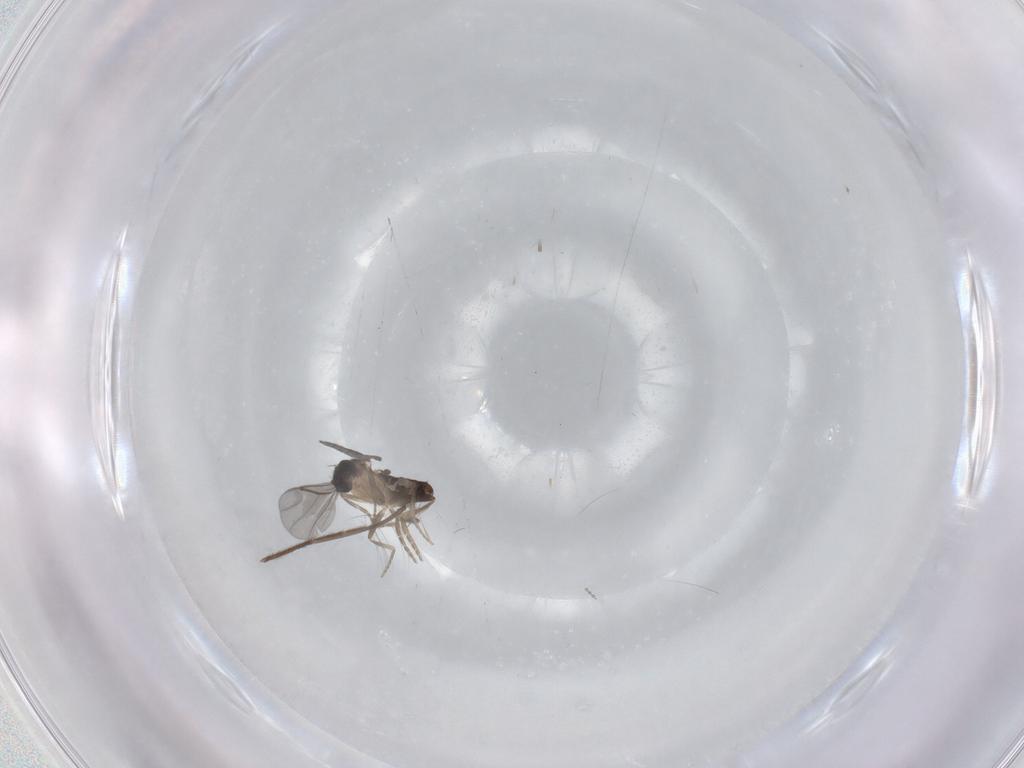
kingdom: Animalia
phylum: Arthropoda
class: Insecta
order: Diptera
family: Chironomidae
